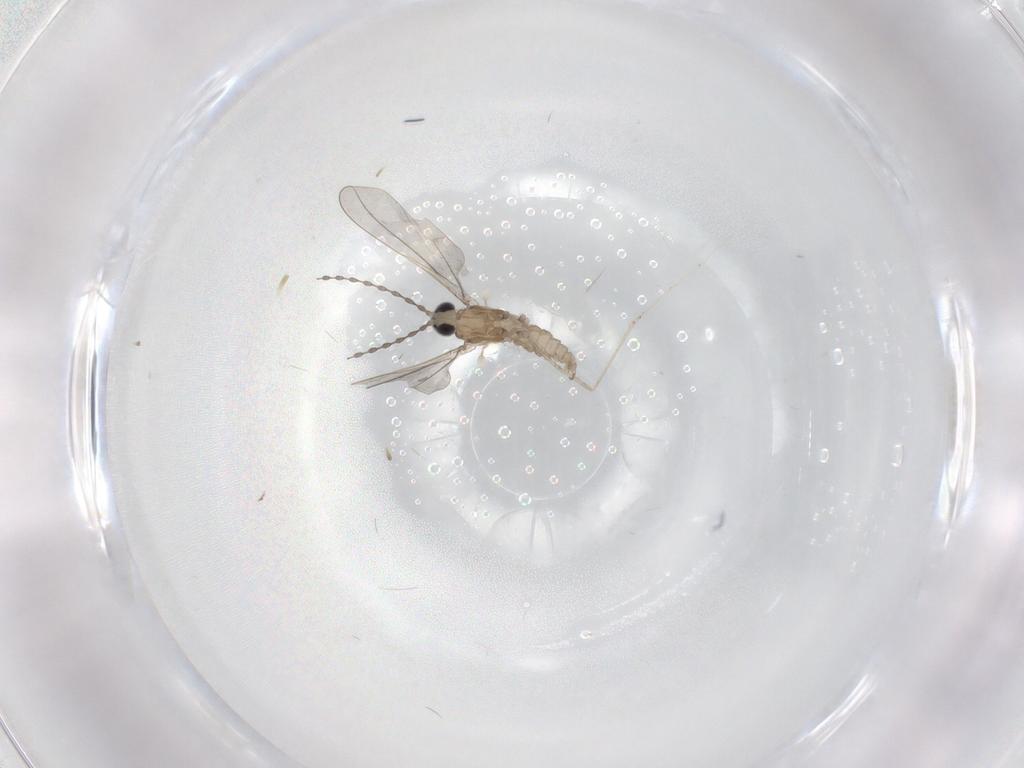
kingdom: Animalia
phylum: Arthropoda
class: Insecta
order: Diptera
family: Cecidomyiidae
